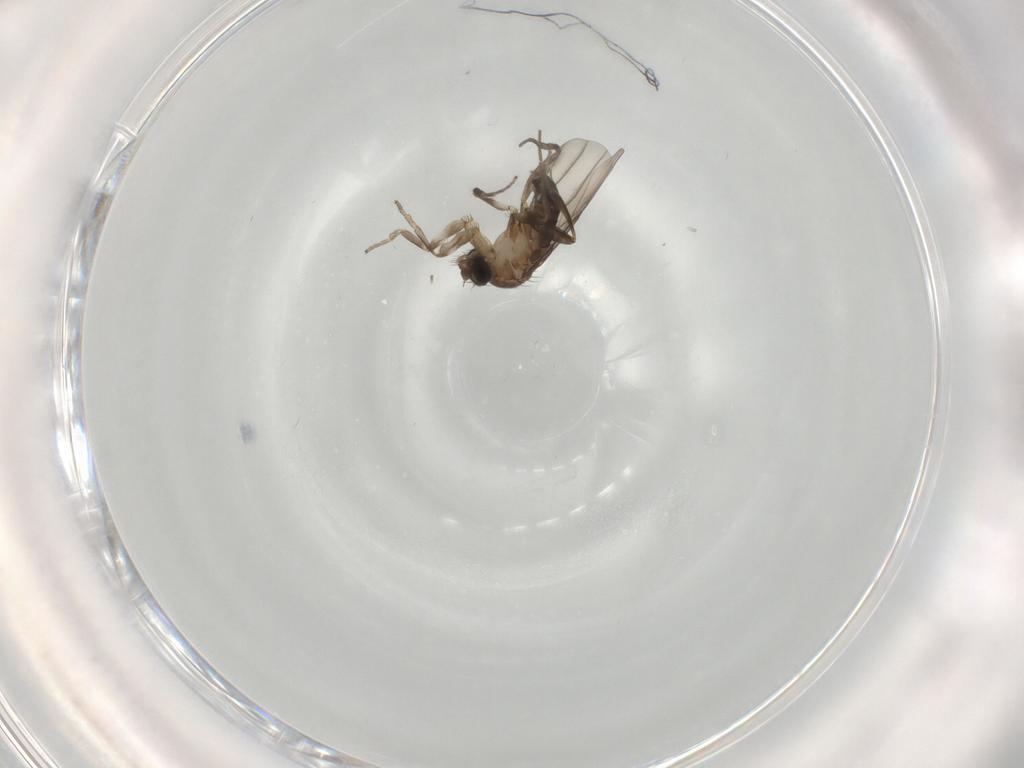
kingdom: Animalia
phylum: Arthropoda
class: Insecta
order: Diptera
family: Phoridae
